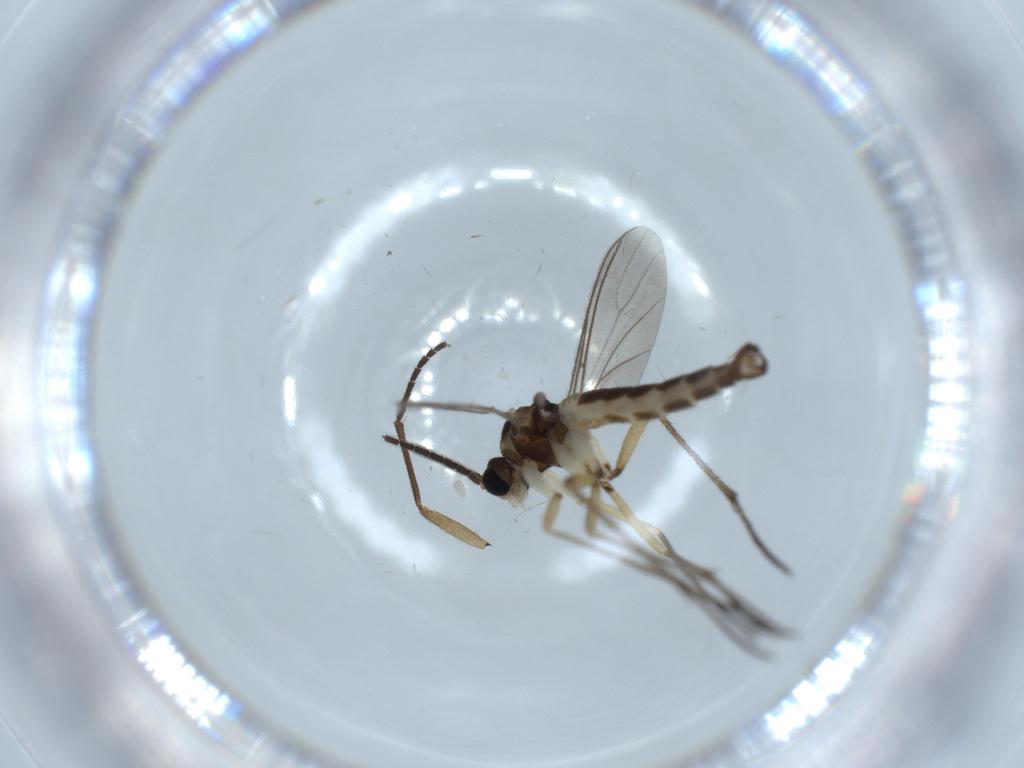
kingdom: Animalia
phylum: Arthropoda
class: Insecta
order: Diptera
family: Sciaridae
